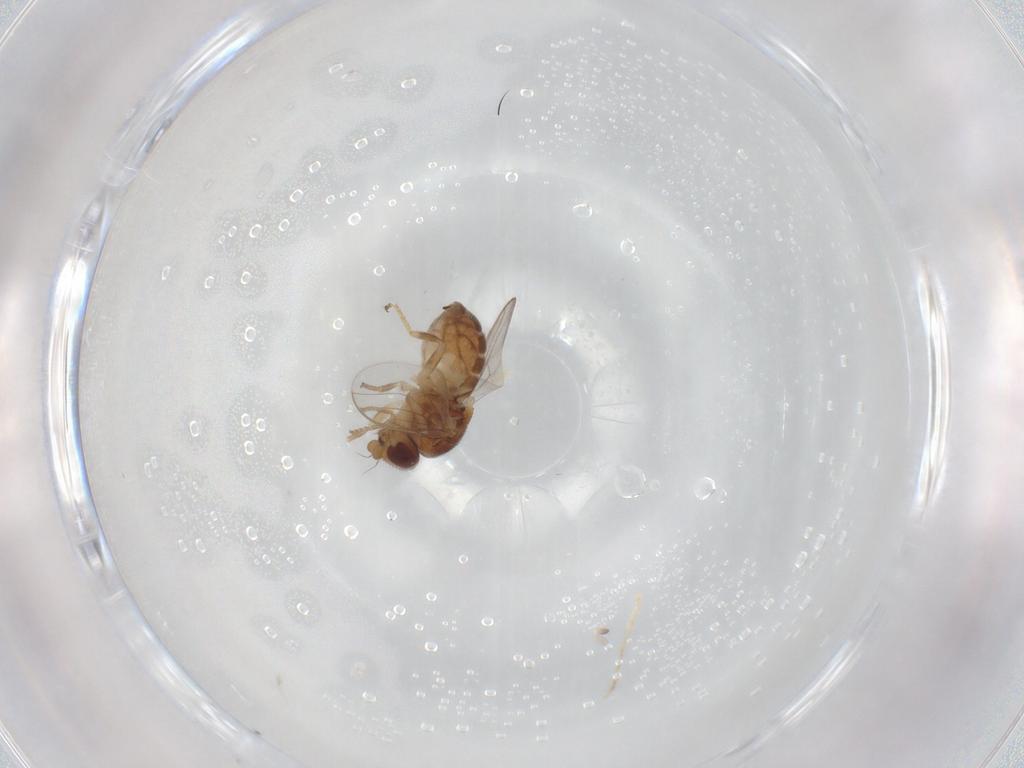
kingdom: Animalia
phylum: Arthropoda
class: Insecta
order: Diptera
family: Chloropidae
